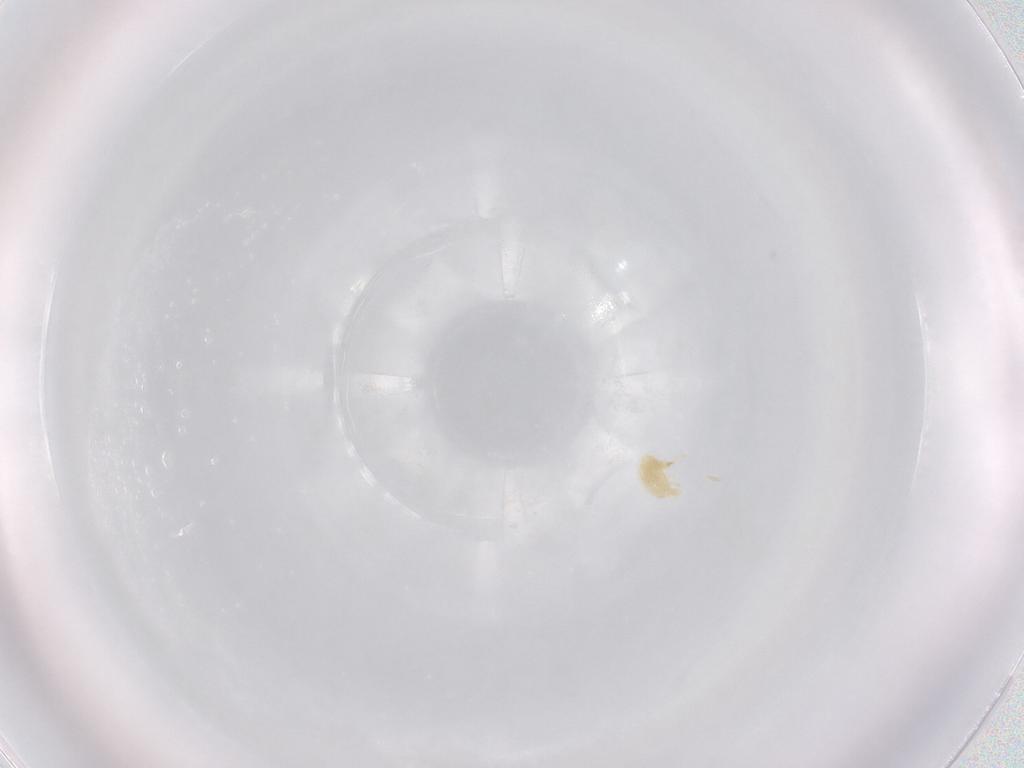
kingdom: Animalia
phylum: Arthropoda
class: Arachnida
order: Trombidiformes
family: Eupodidae
